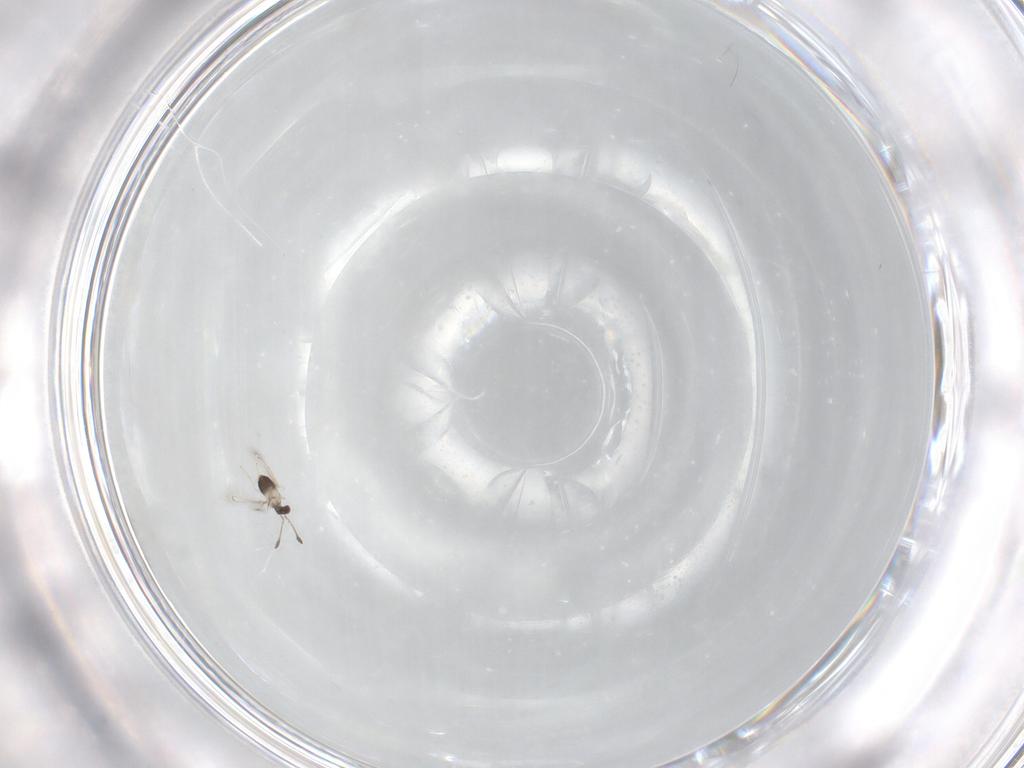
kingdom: Animalia
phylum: Arthropoda
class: Insecta
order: Hymenoptera
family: Mymaridae
